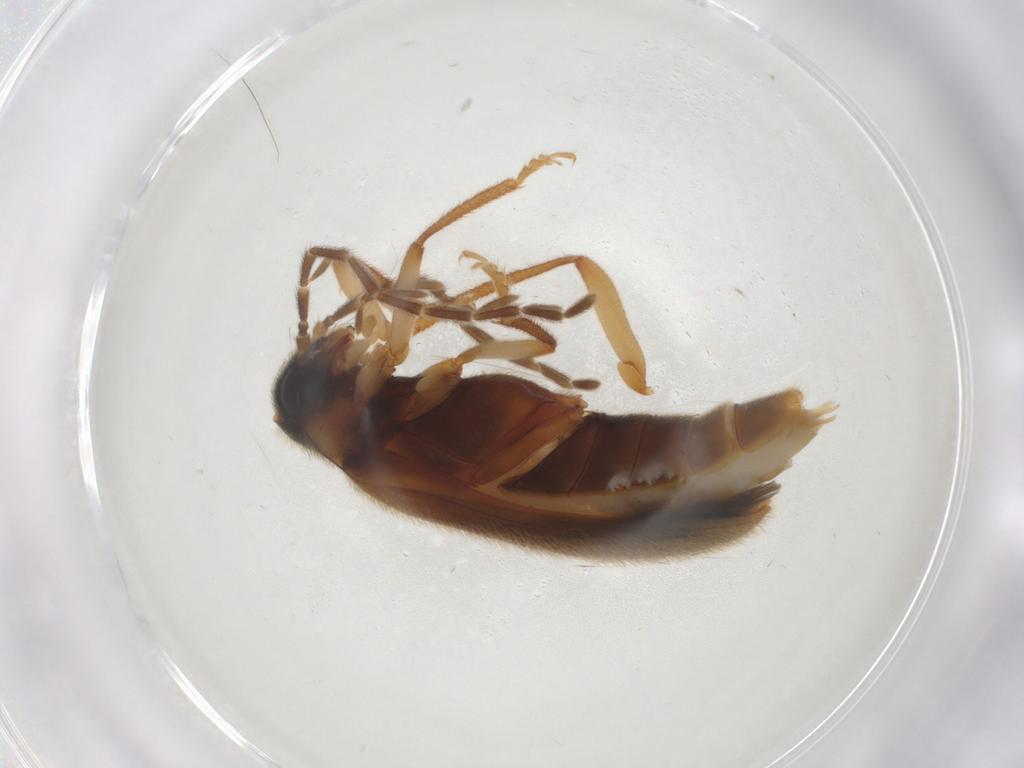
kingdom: Animalia
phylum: Arthropoda
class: Insecta
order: Coleoptera
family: Ptilodactylidae
